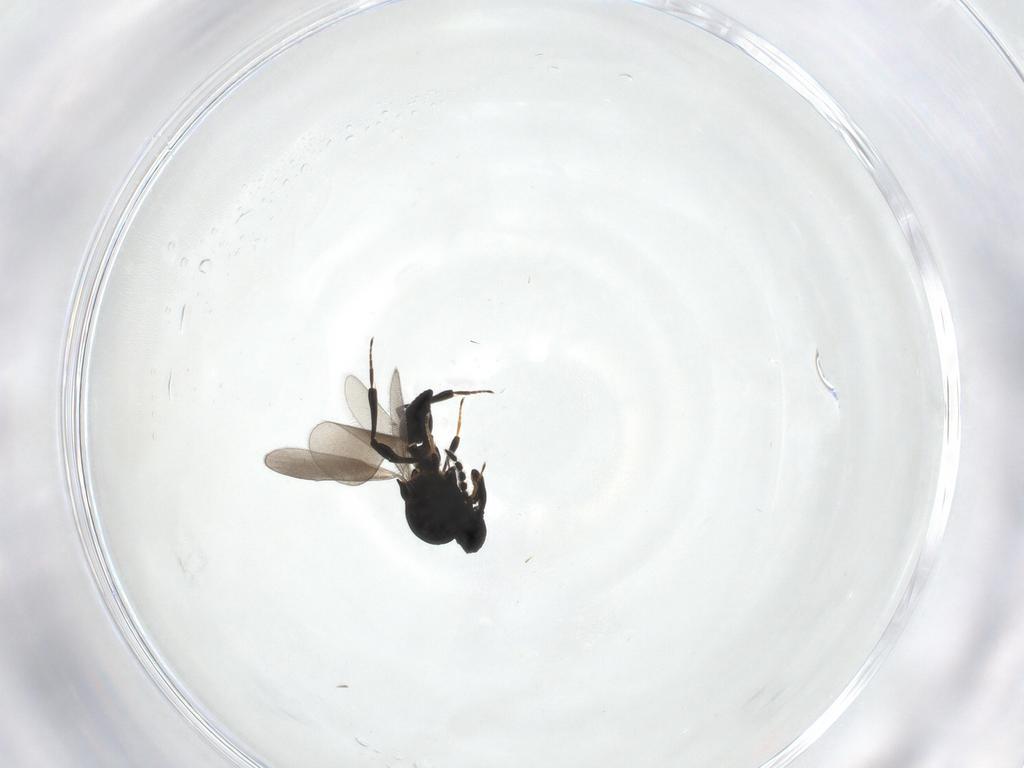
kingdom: Animalia
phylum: Arthropoda
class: Insecta
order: Hymenoptera
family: Platygastridae
